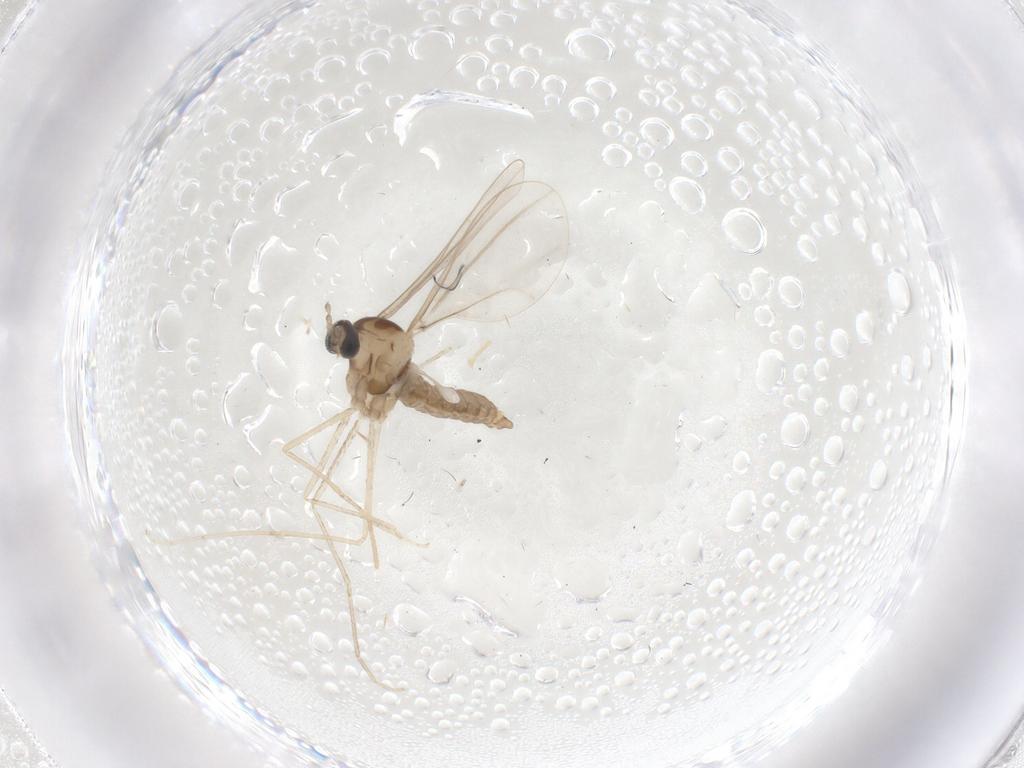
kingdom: Animalia
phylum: Arthropoda
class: Insecta
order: Diptera
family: Cecidomyiidae
